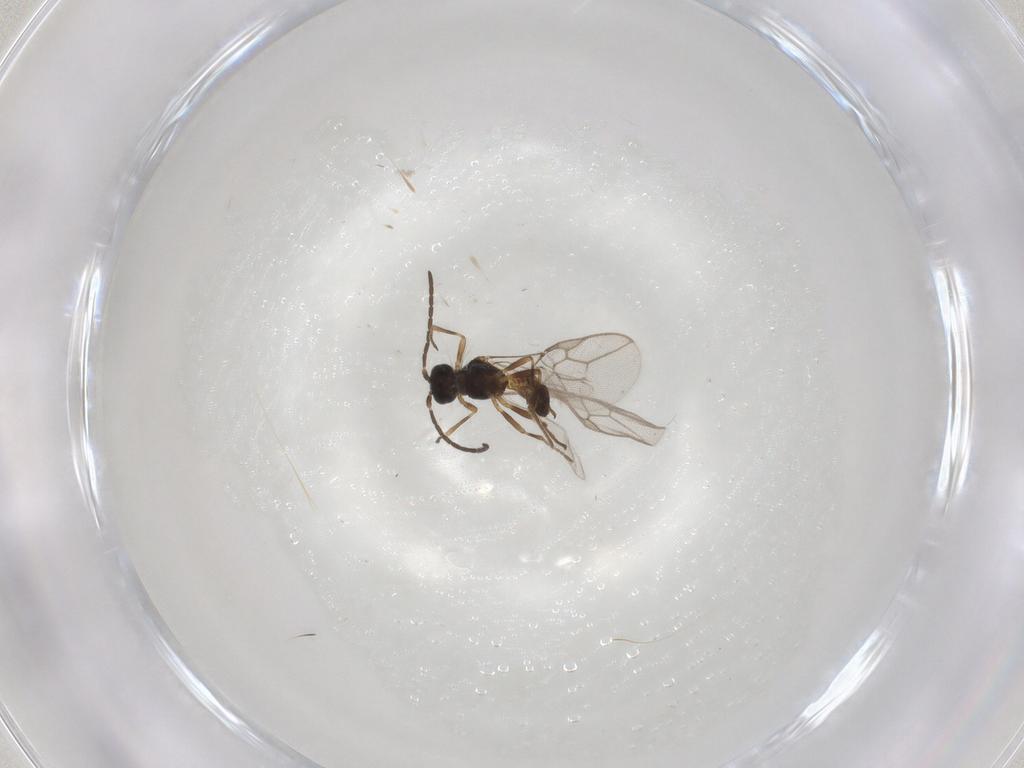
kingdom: Animalia
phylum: Arthropoda
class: Insecta
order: Hymenoptera
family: Braconidae
